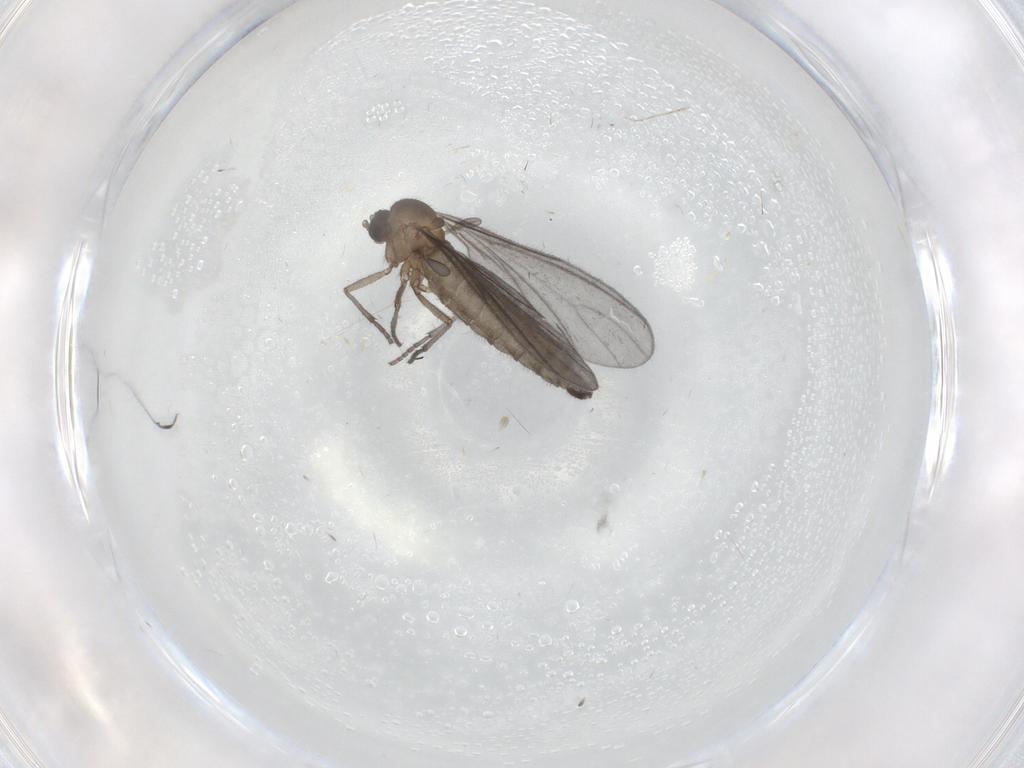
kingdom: Animalia
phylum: Arthropoda
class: Insecta
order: Diptera
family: Sciaridae
